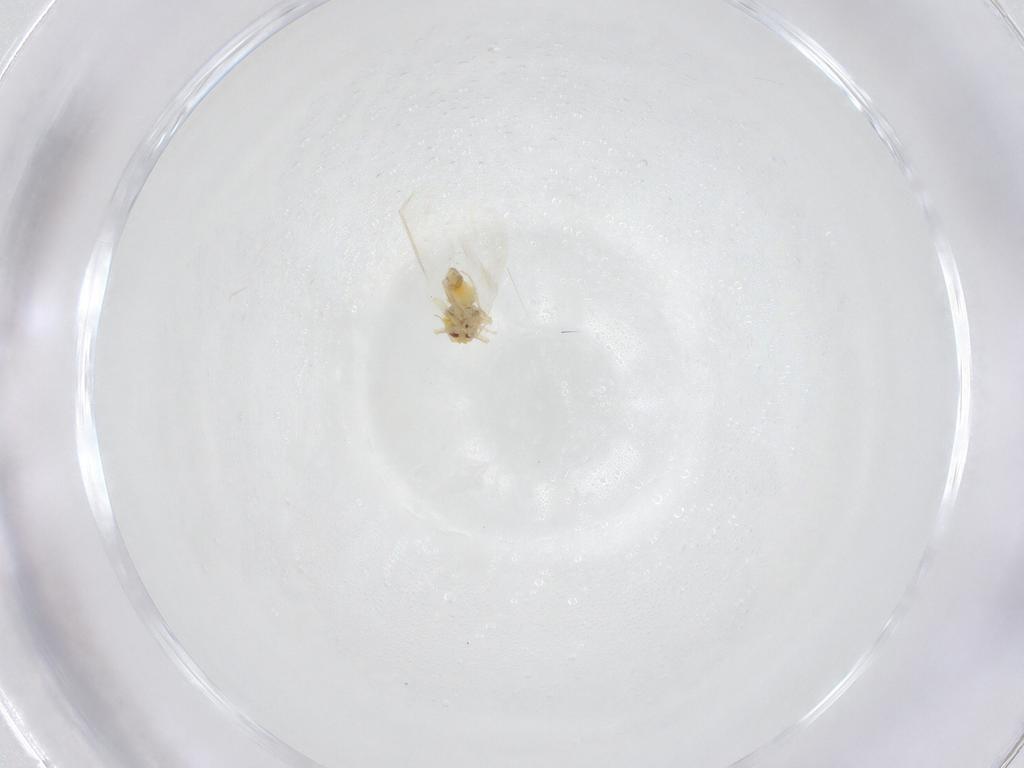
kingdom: Animalia
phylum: Arthropoda
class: Insecta
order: Hemiptera
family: Aleyrodidae
